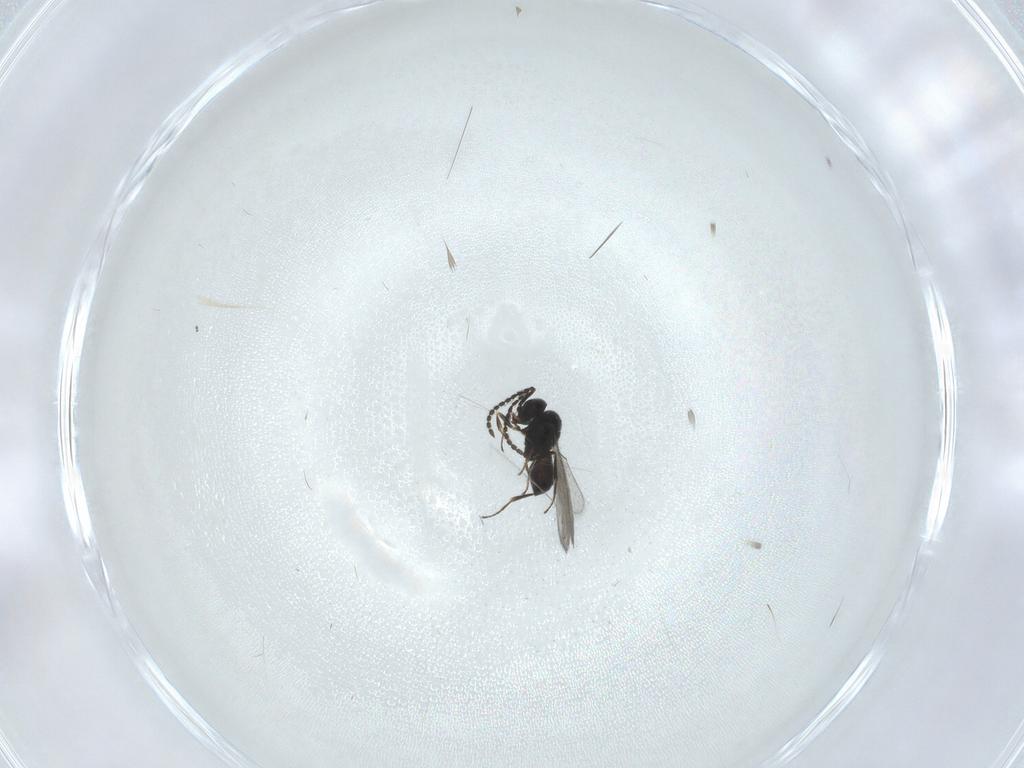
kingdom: Animalia
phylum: Arthropoda
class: Insecta
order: Hymenoptera
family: Scelionidae
